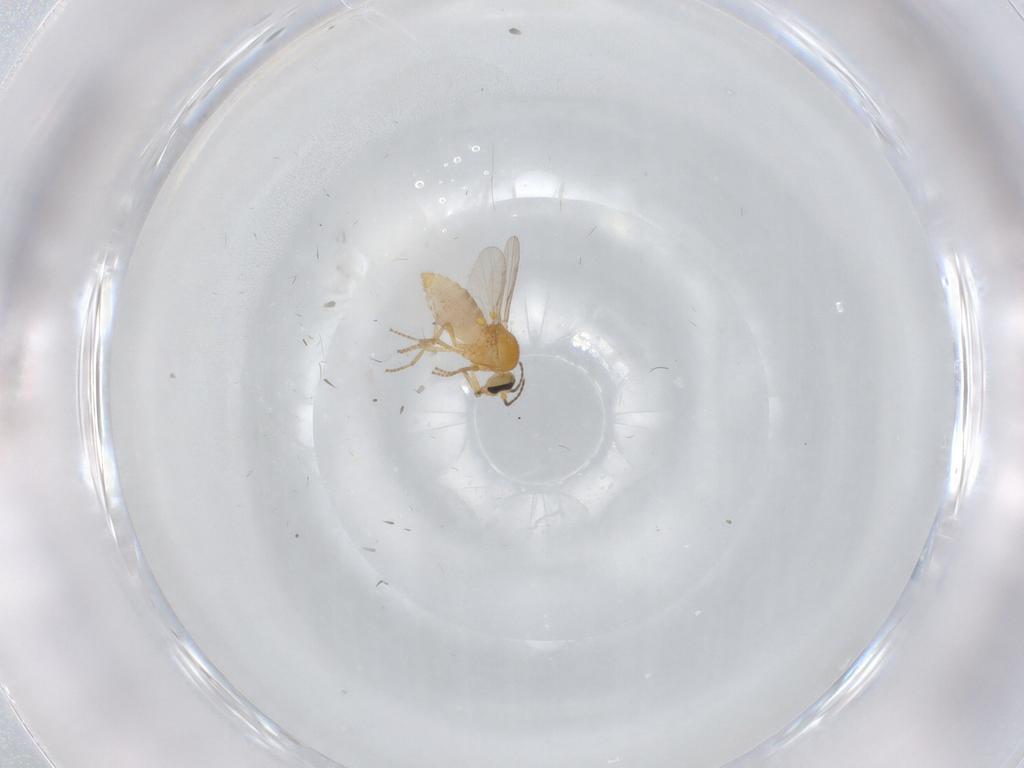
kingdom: Animalia
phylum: Arthropoda
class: Insecta
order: Diptera
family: Ceratopogonidae
